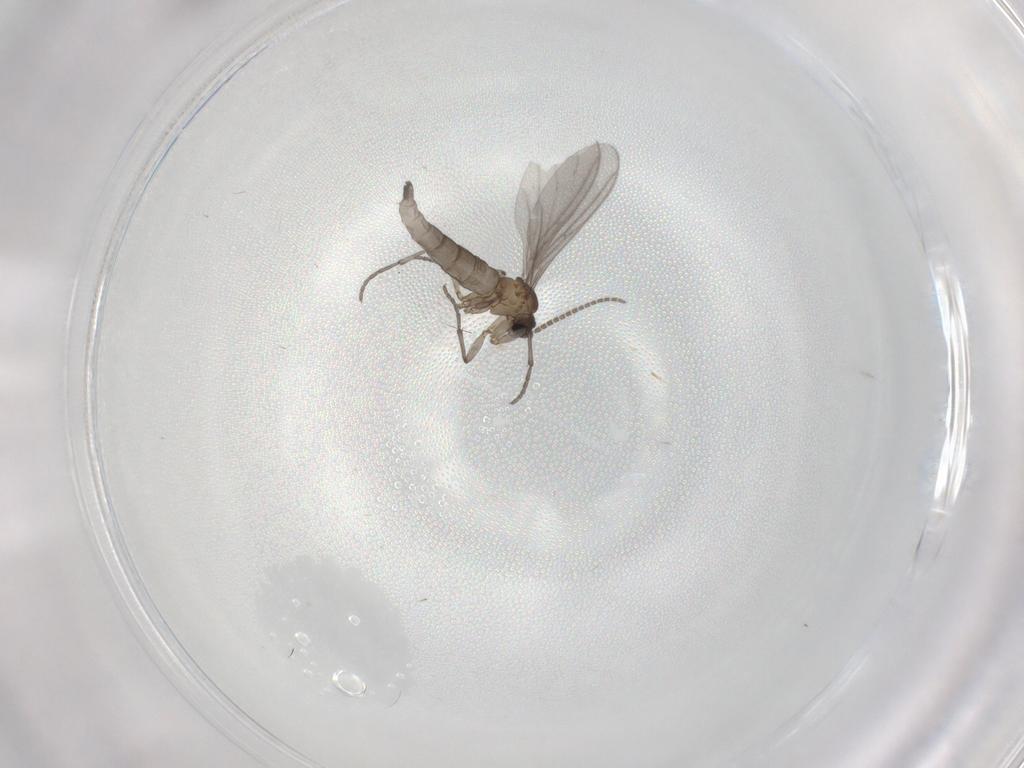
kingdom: Animalia
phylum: Arthropoda
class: Insecta
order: Diptera
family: Sciaridae
